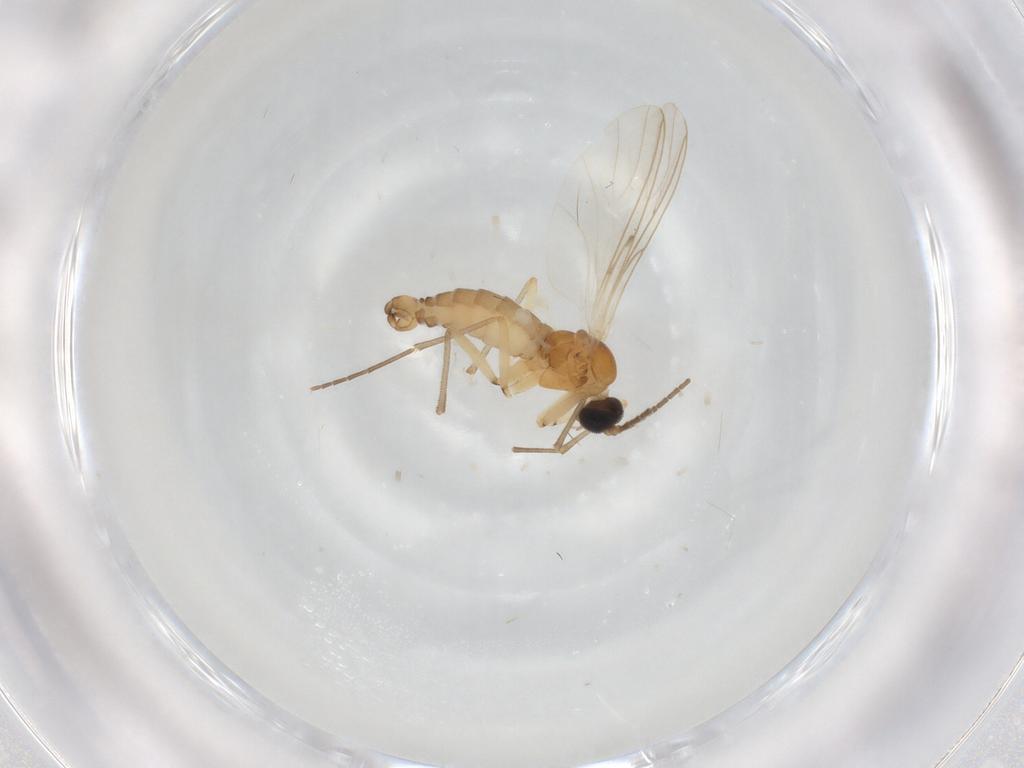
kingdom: Animalia
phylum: Arthropoda
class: Insecta
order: Diptera
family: Sciaridae
